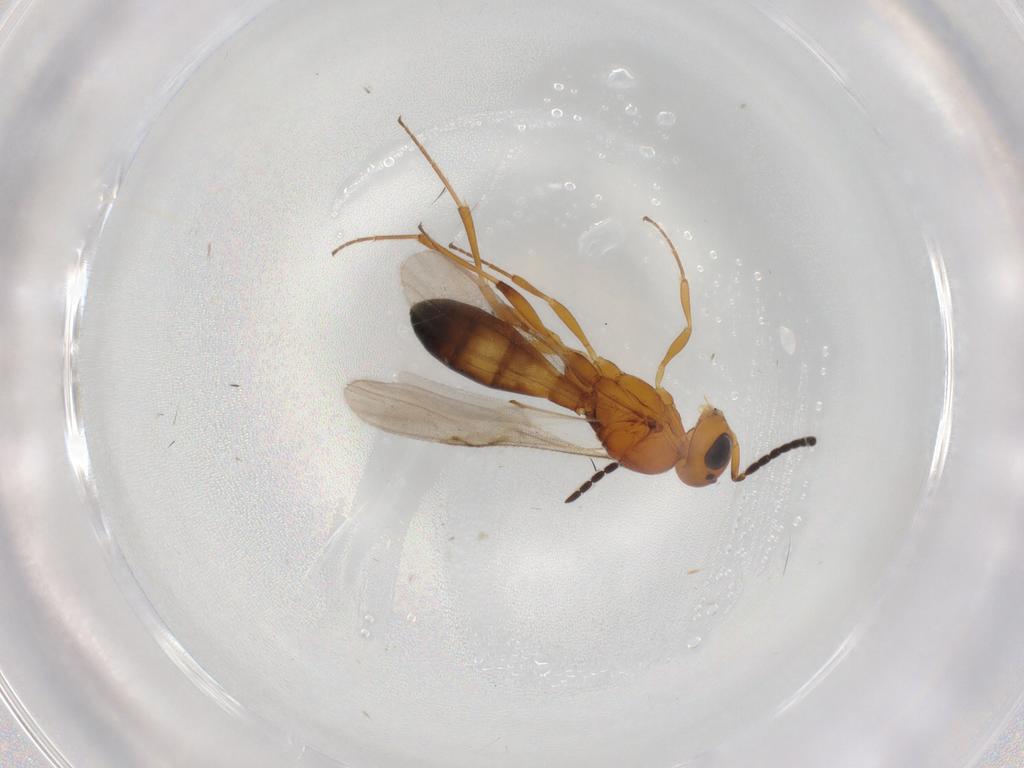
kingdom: Animalia
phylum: Arthropoda
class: Insecta
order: Hymenoptera
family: Scelionidae
